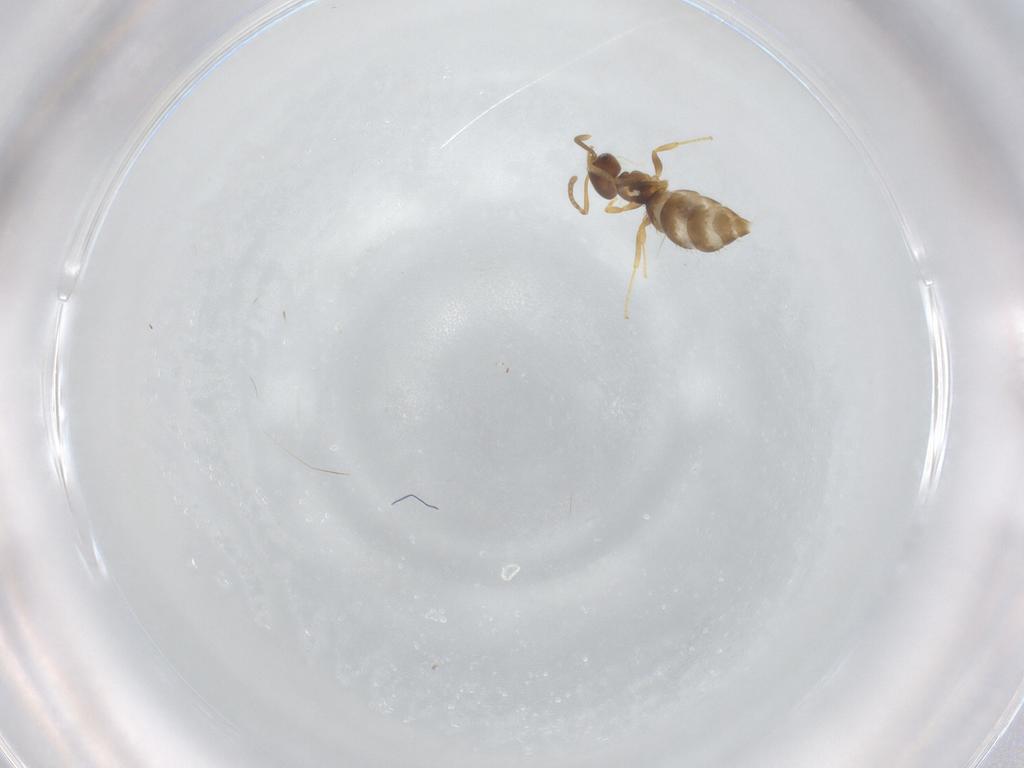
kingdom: Animalia
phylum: Arthropoda
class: Insecta
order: Hymenoptera
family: Formicidae
